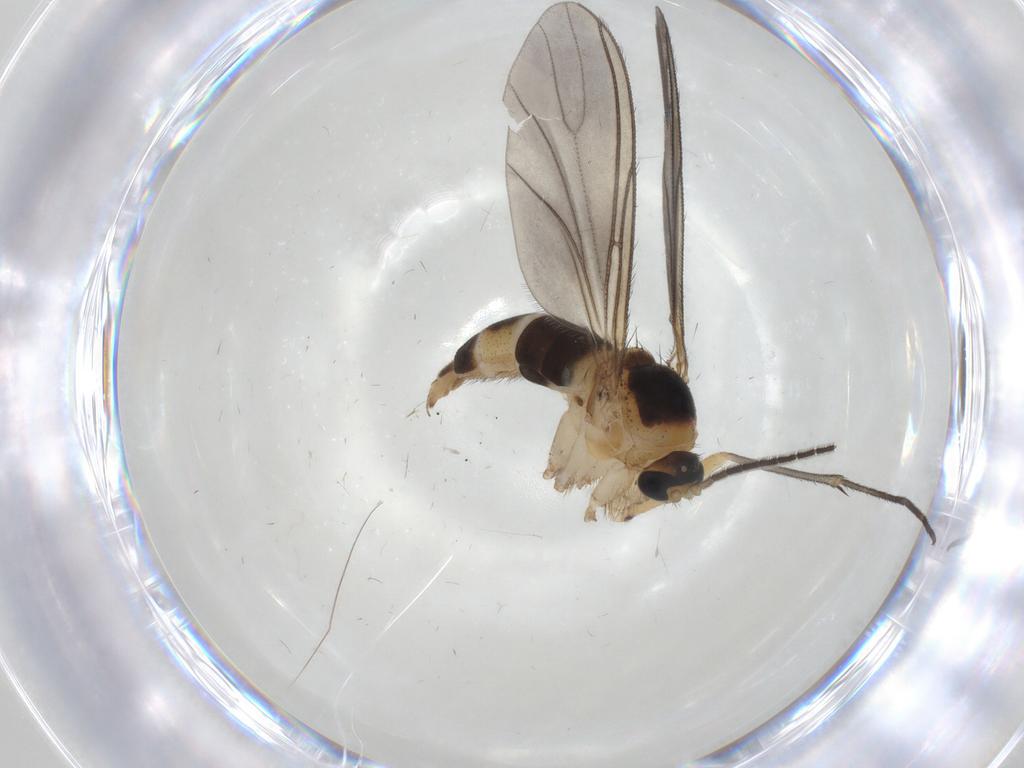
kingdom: Animalia
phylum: Arthropoda
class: Insecta
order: Diptera
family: Sciaridae
